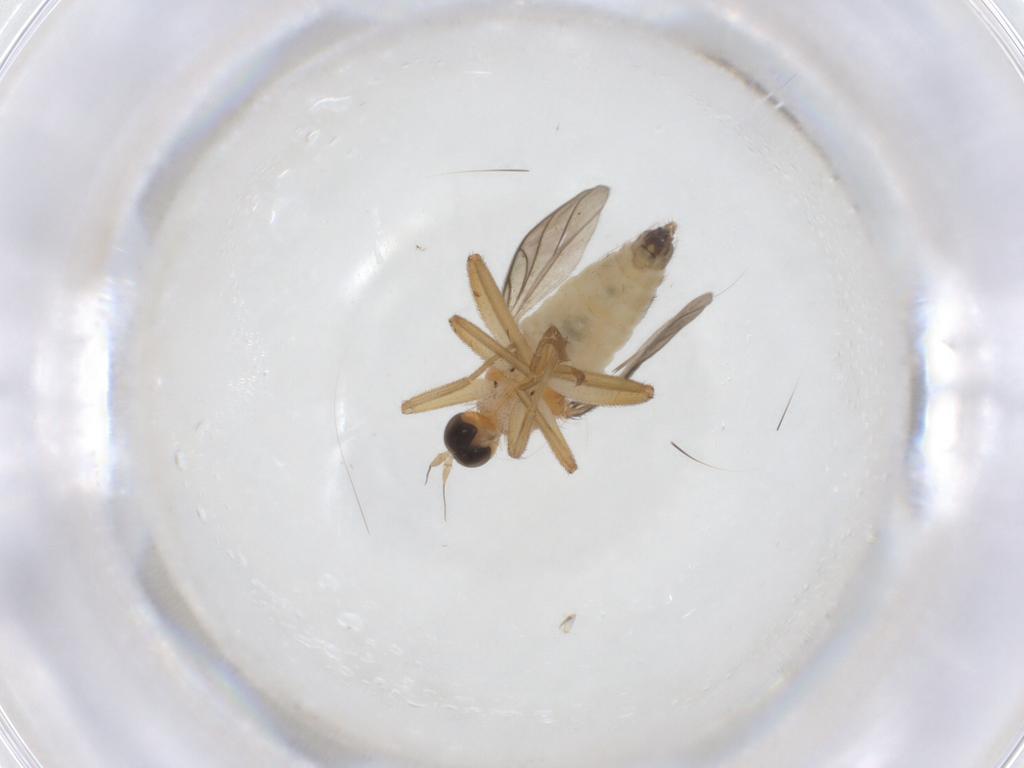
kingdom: Animalia
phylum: Arthropoda
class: Insecta
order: Diptera
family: Hybotidae
